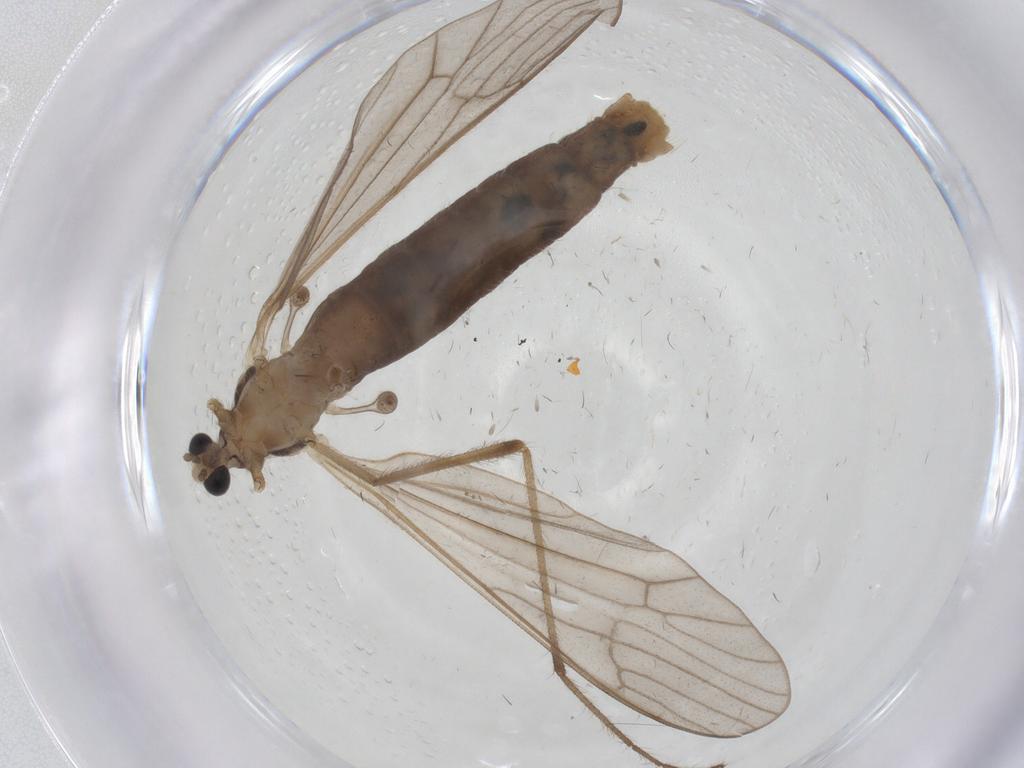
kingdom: Animalia
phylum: Arthropoda
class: Insecta
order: Diptera
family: Limoniidae
